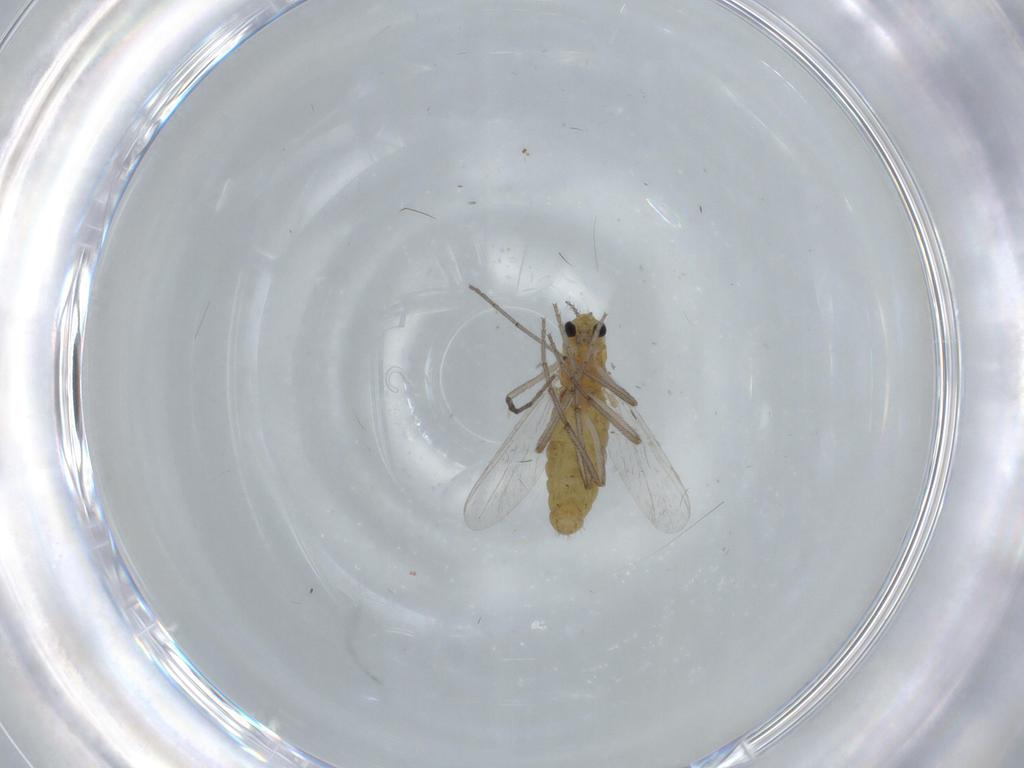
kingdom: Animalia
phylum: Arthropoda
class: Insecta
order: Diptera
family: Chironomidae
